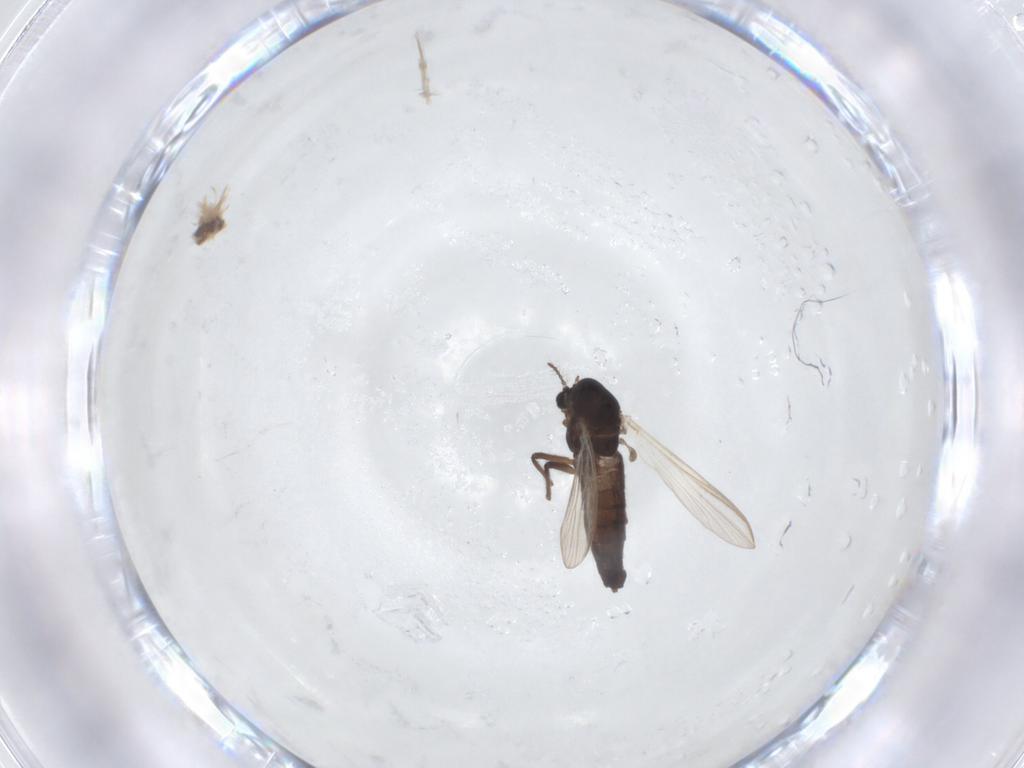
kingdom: Animalia
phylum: Arthropoda
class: Insecta
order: Diptera
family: Chironomidae
